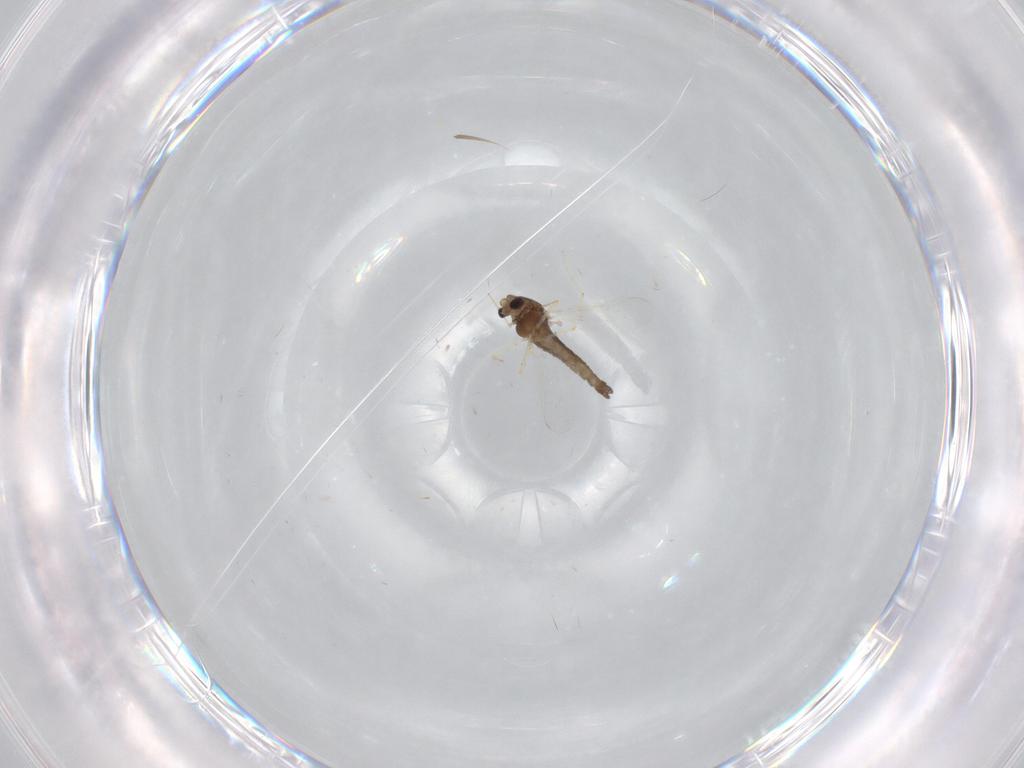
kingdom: Animalia
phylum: Arthropoda
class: Insecta
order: Diptera
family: Chironomidae
